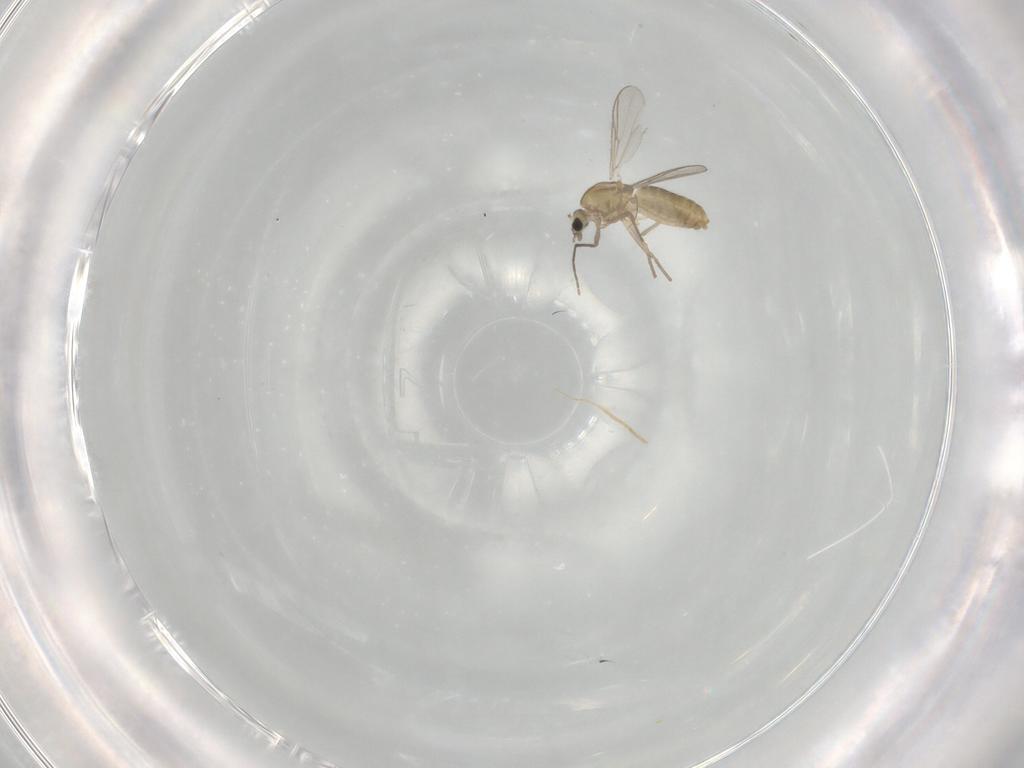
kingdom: Animalia
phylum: Arthropoda
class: Insecta
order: Diptera
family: Chironomidae
